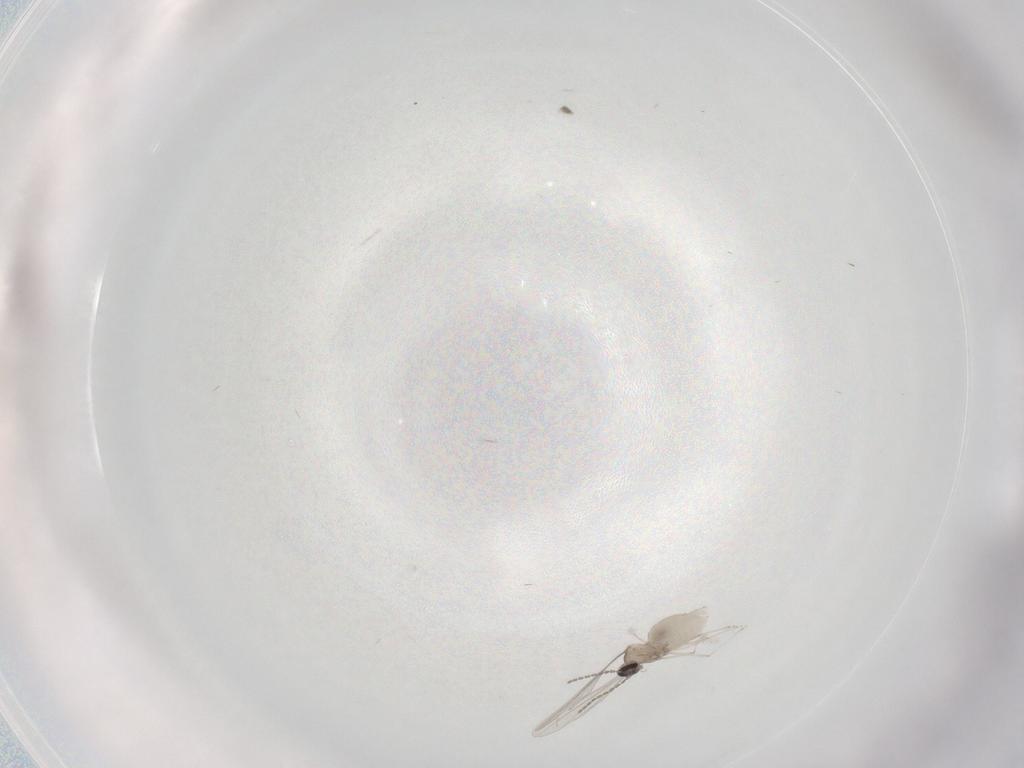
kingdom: Animalia
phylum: Arthropoda
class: Insecta
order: Diptera
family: Cecidomyiidae
